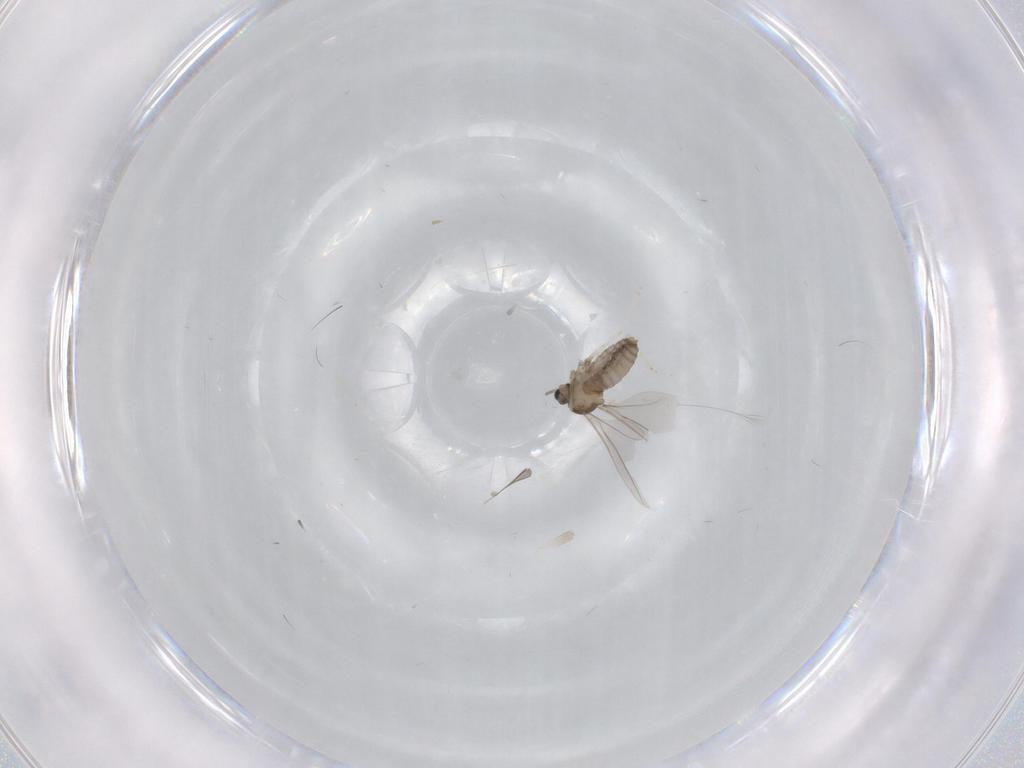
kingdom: Animalia
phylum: Arthropoda
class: Insecta
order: Diptera
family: Cecidomyiidae
